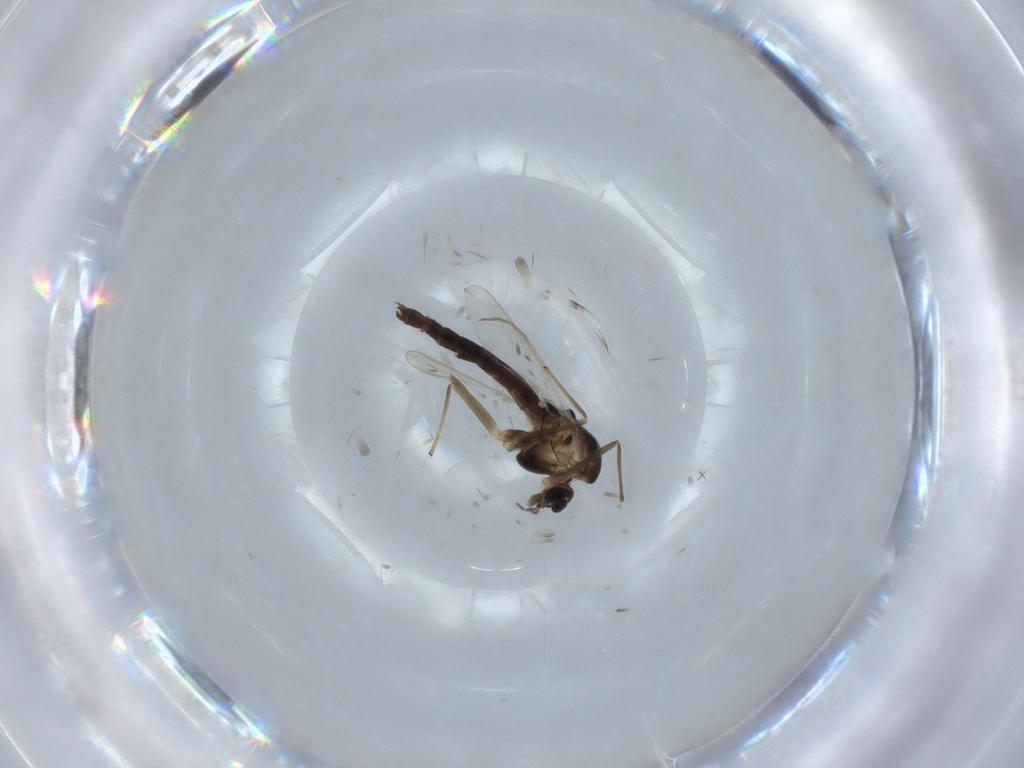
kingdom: Animalia
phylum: Arthropoda
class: Insecta
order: Diptera
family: Chironomidae
